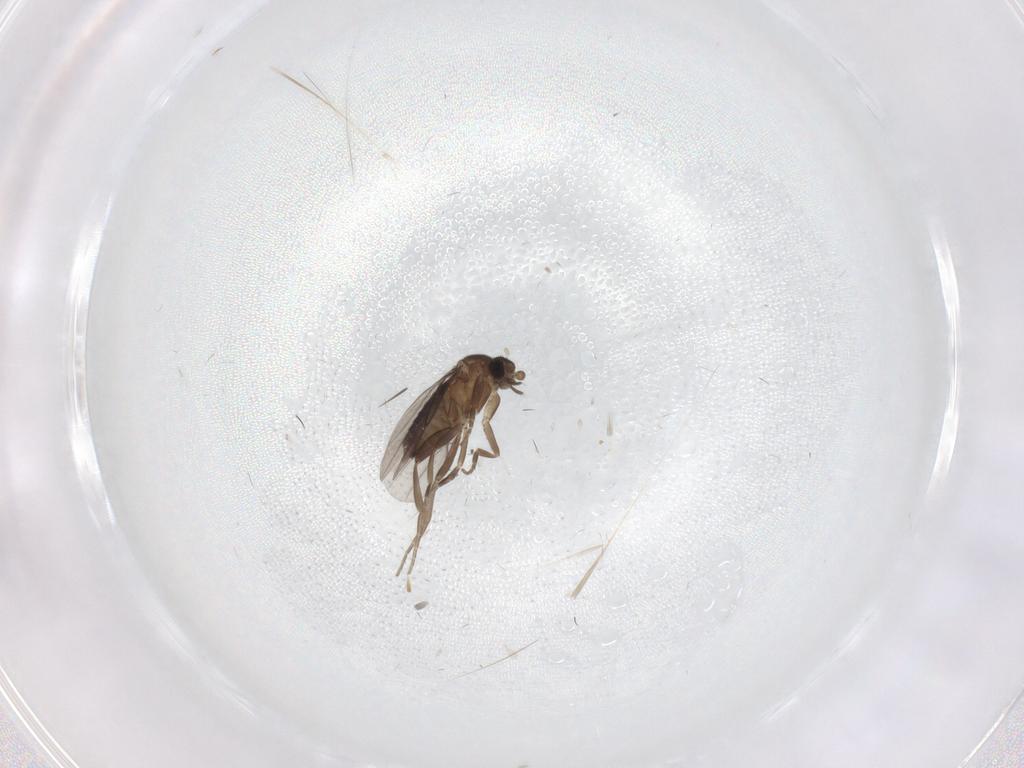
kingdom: Animalia
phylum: Arthropoda
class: Insecta
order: Diptera
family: Phoridae
